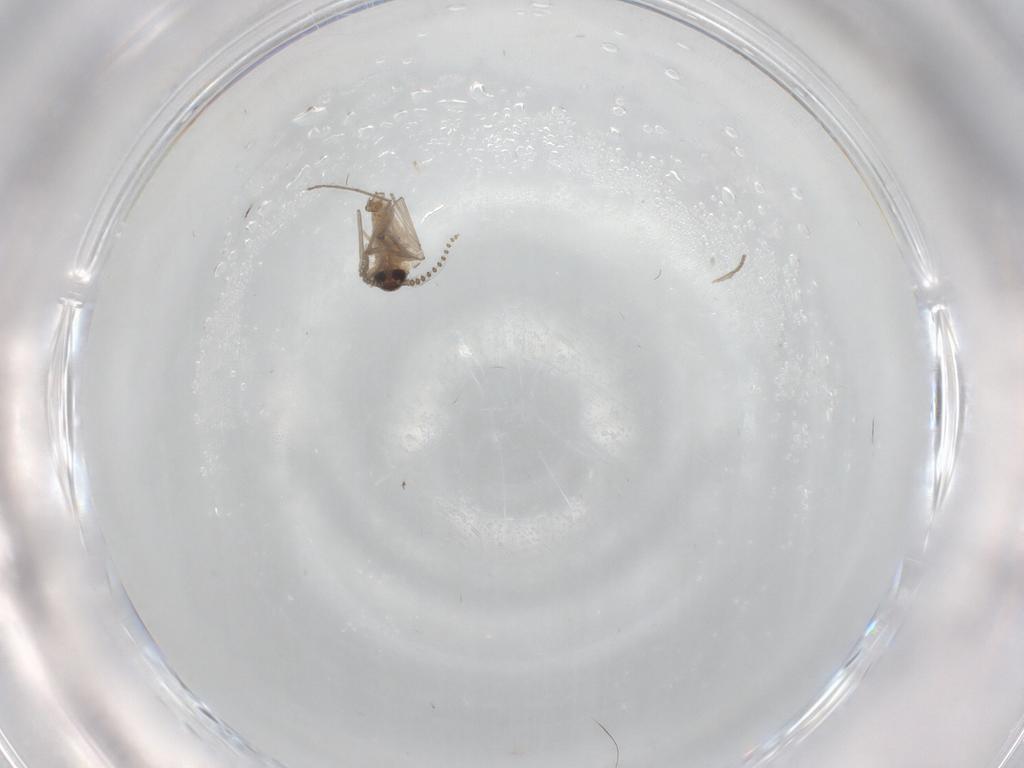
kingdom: Animalia
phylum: Arthropoda
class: Insecta
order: Diptera
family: Psychodidae
